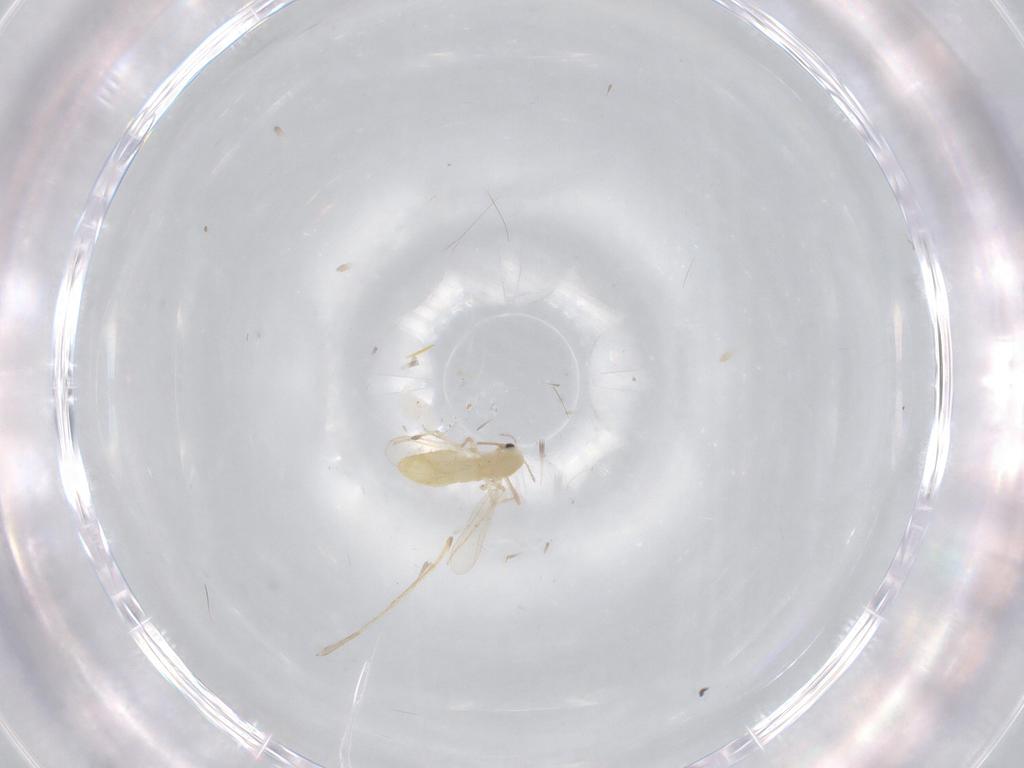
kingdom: Animalia
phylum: Arthropoda
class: Insecta
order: Diptera
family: Chironomidae
